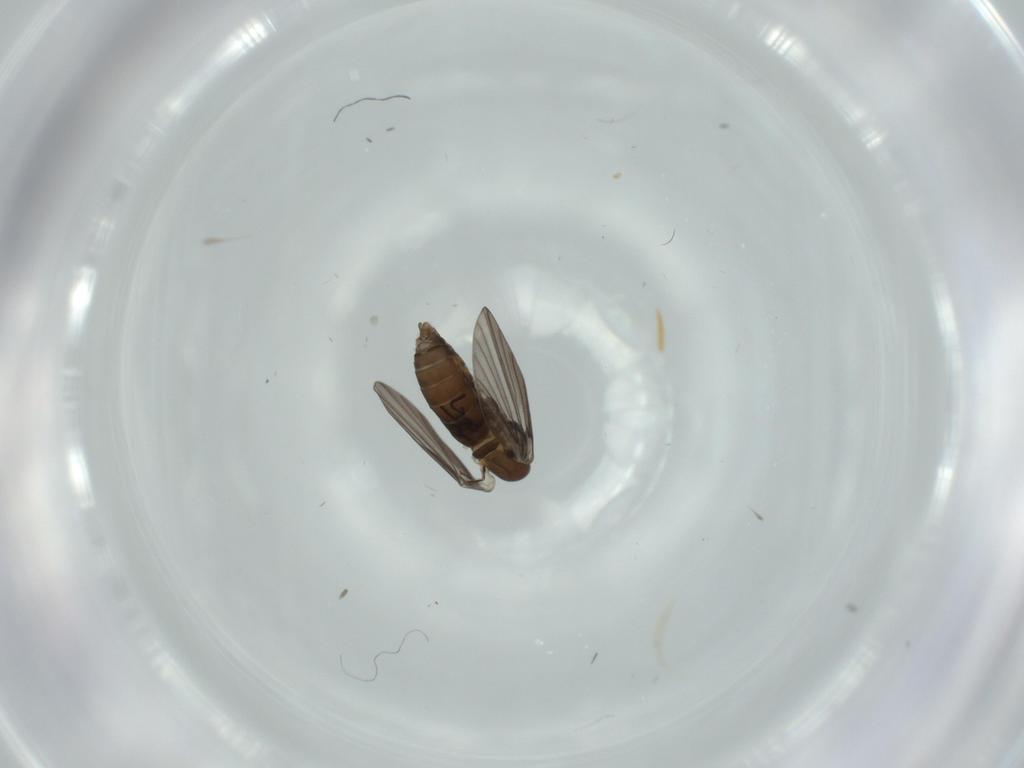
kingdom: Animalia
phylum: Arthropoda
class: Insecta
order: Diptera
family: Psychodidae
